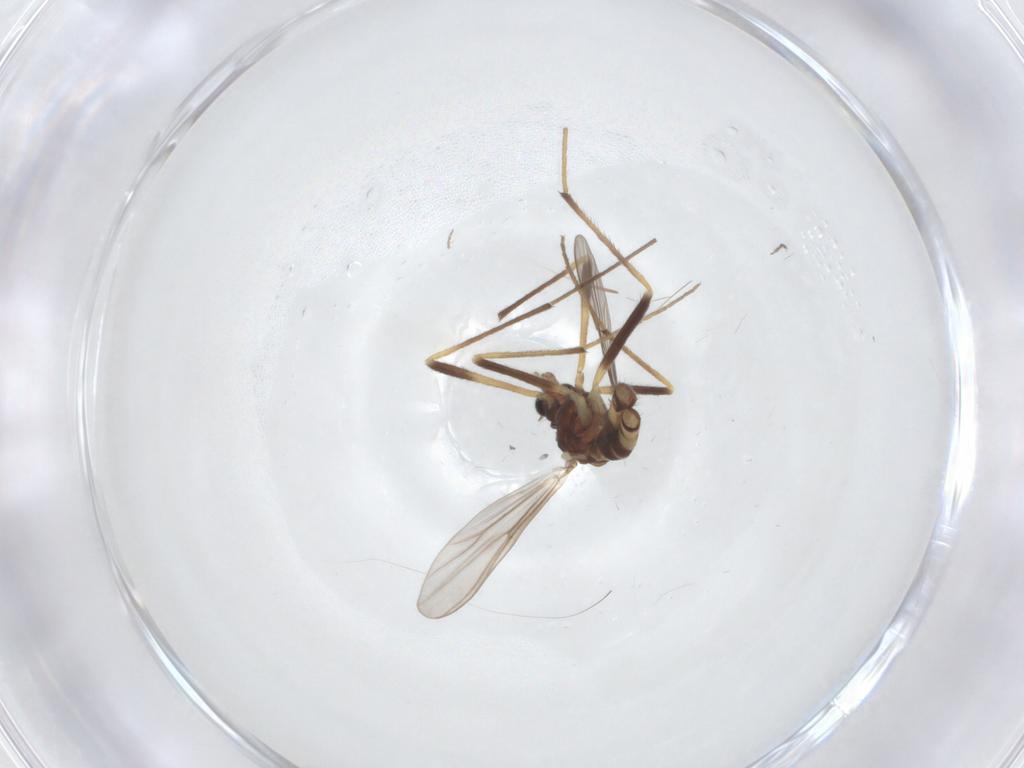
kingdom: Animalia
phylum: Arthropoda
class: Insecta
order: Diptera
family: Chironomidae
